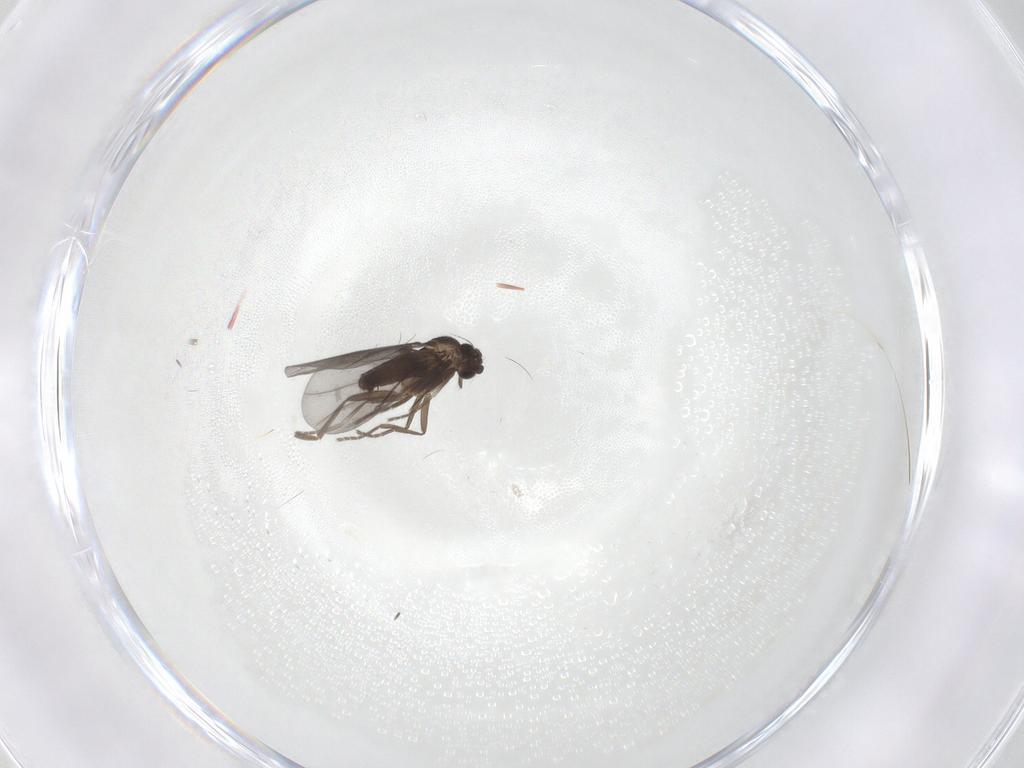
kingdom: Animalia
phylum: Arthropoda
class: Insecta
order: Diptera
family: Phoridae
